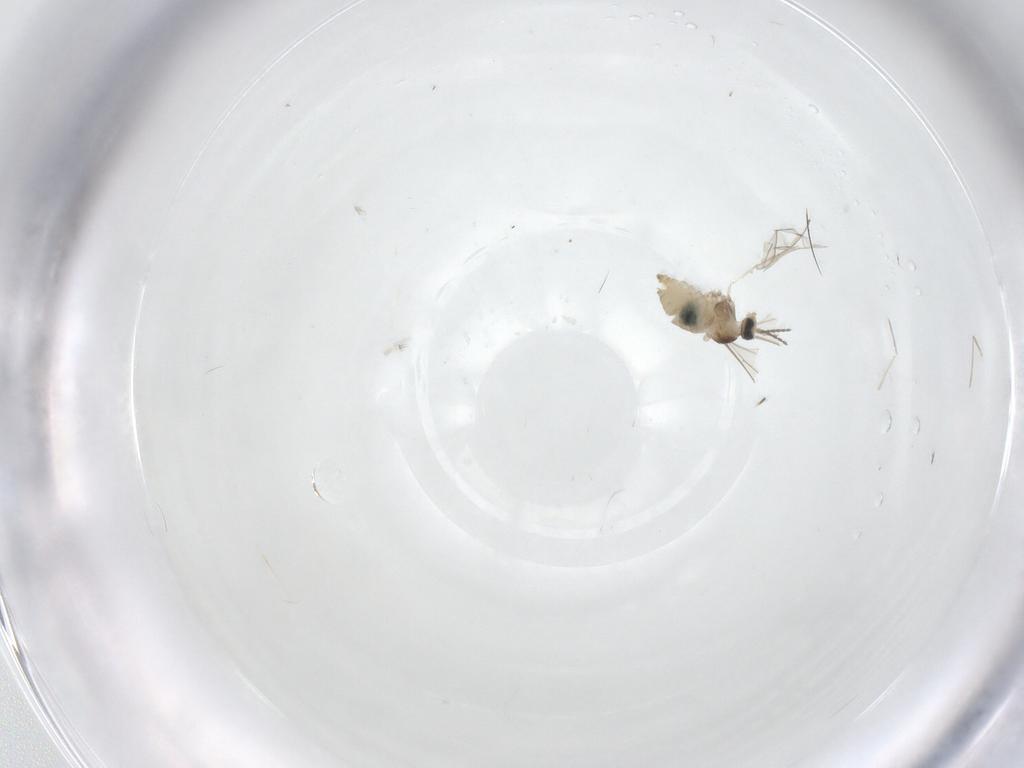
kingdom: Animalia
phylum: Arthropoda
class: Insecta
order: Diptera
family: Cecidomyiidae
